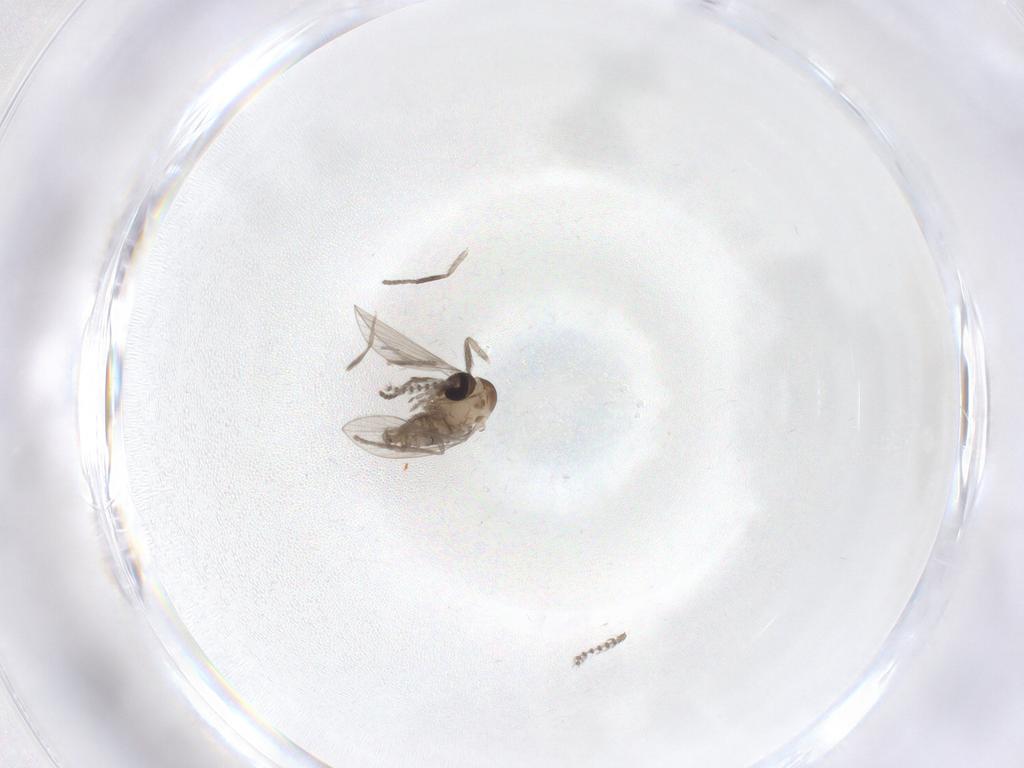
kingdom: Animalia
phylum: Arthropoda
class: Insecta
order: Diptera
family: Psychodidae
